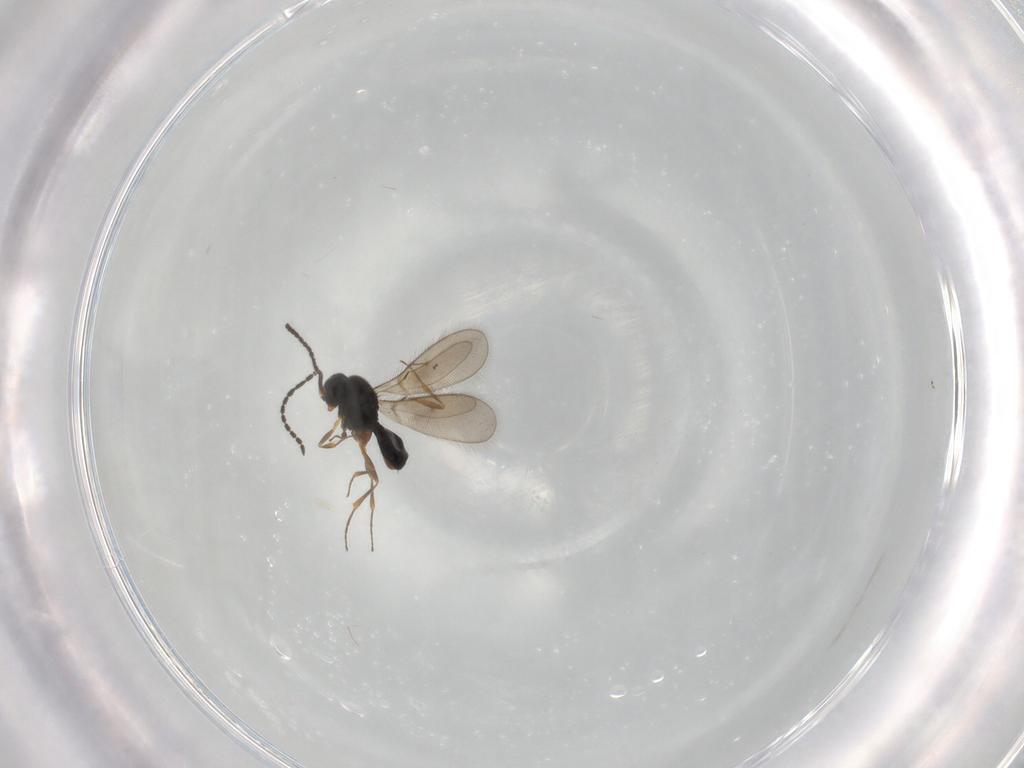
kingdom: Animalia
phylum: Arthropoda
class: Insecta
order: Hymenoptera
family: Scelionidae
